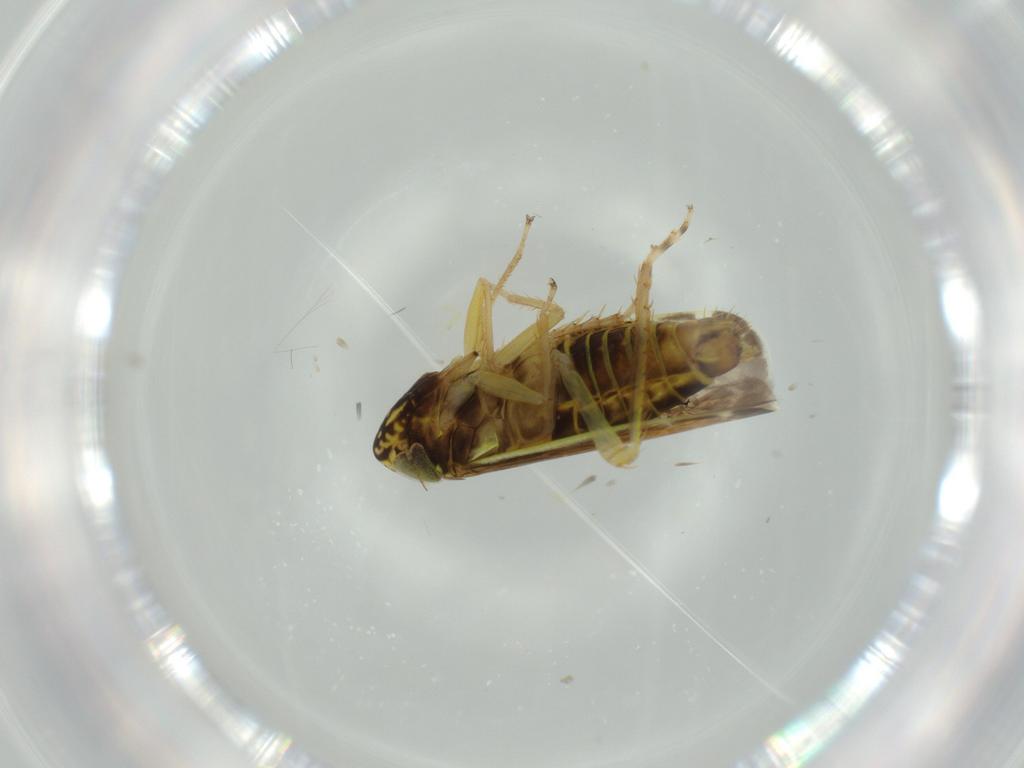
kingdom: Animalia
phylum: Arthropoda
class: Insecta
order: Hemiptera
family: Cicadellidae
